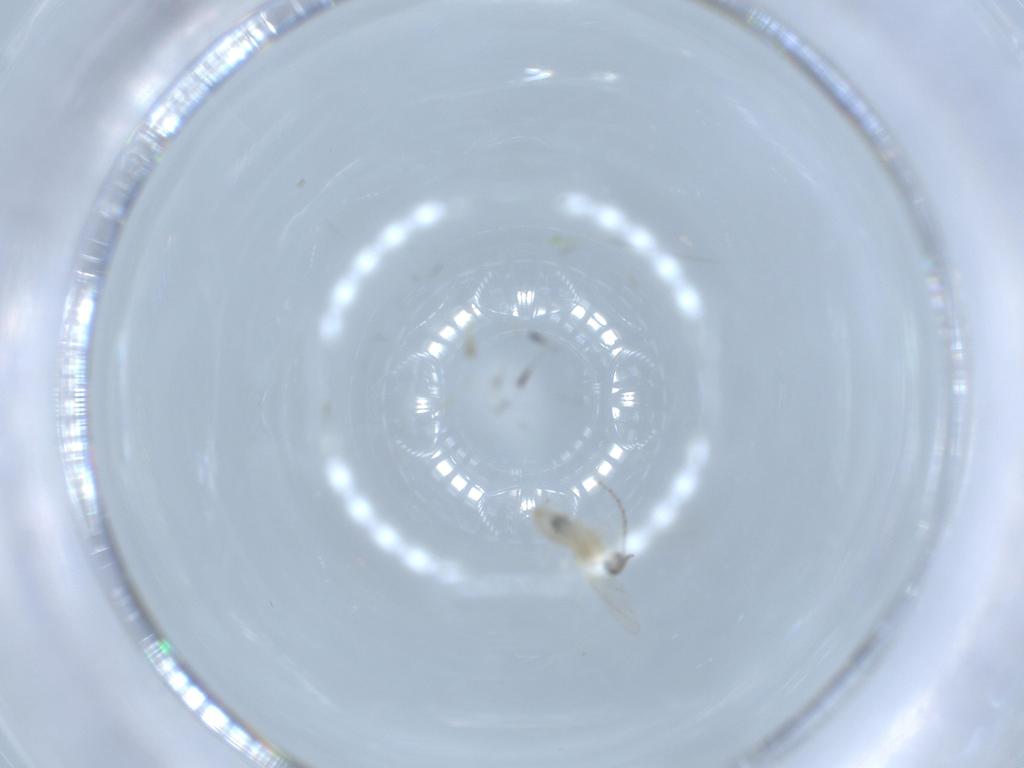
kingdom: Animalia
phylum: Arthropoda
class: Insecta
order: Diptera
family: Cecidomyiidae
